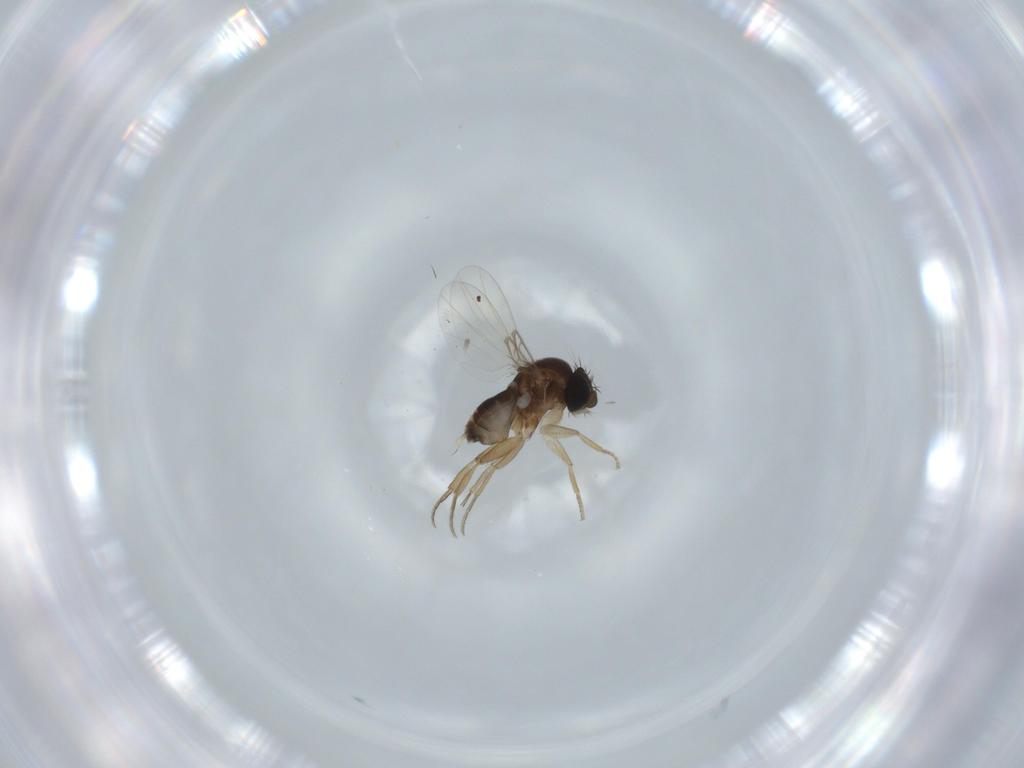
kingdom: Animalia
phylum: Arthropoda
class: Insecta
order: Diptera
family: Phoridae
